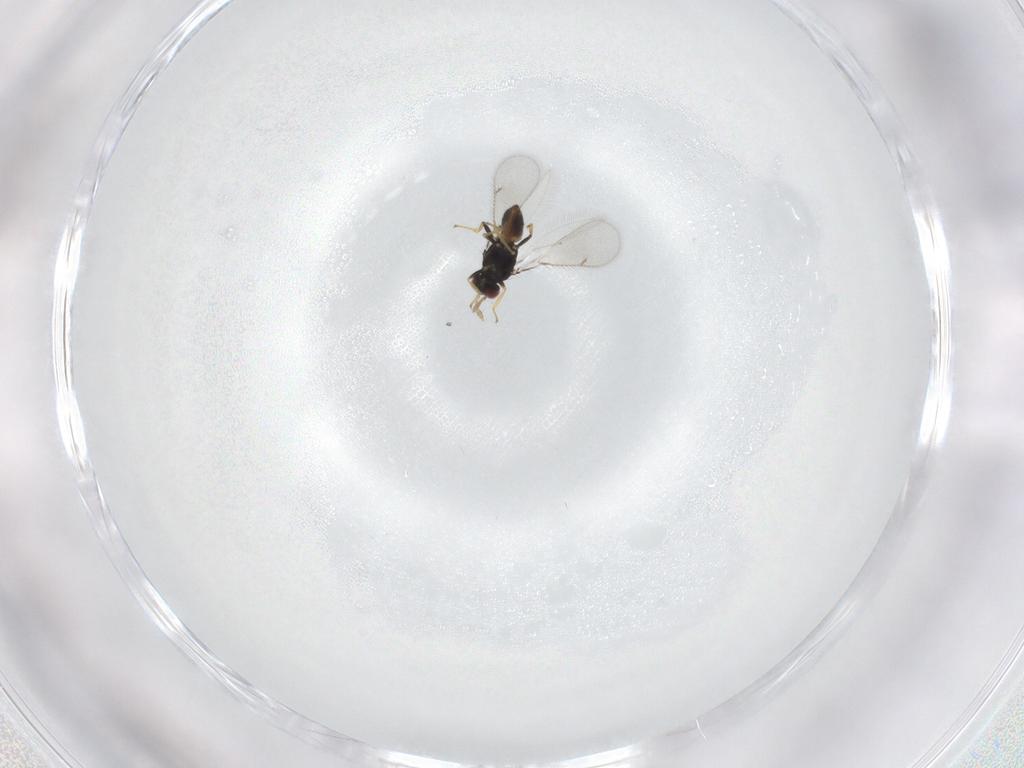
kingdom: Animalia
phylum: Arthropoda
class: Insecta
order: Hymenoptera
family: Eulophidae
